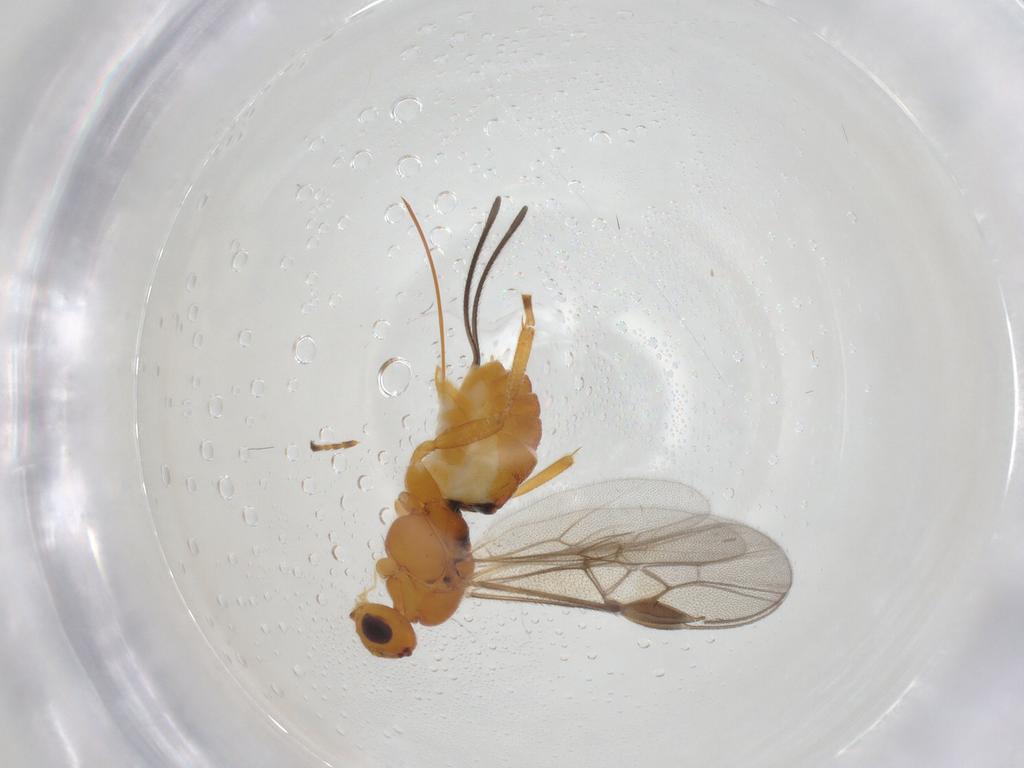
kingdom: Animalia
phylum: Arthropoda
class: Insecta
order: Hymenoptera
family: Braconidae
